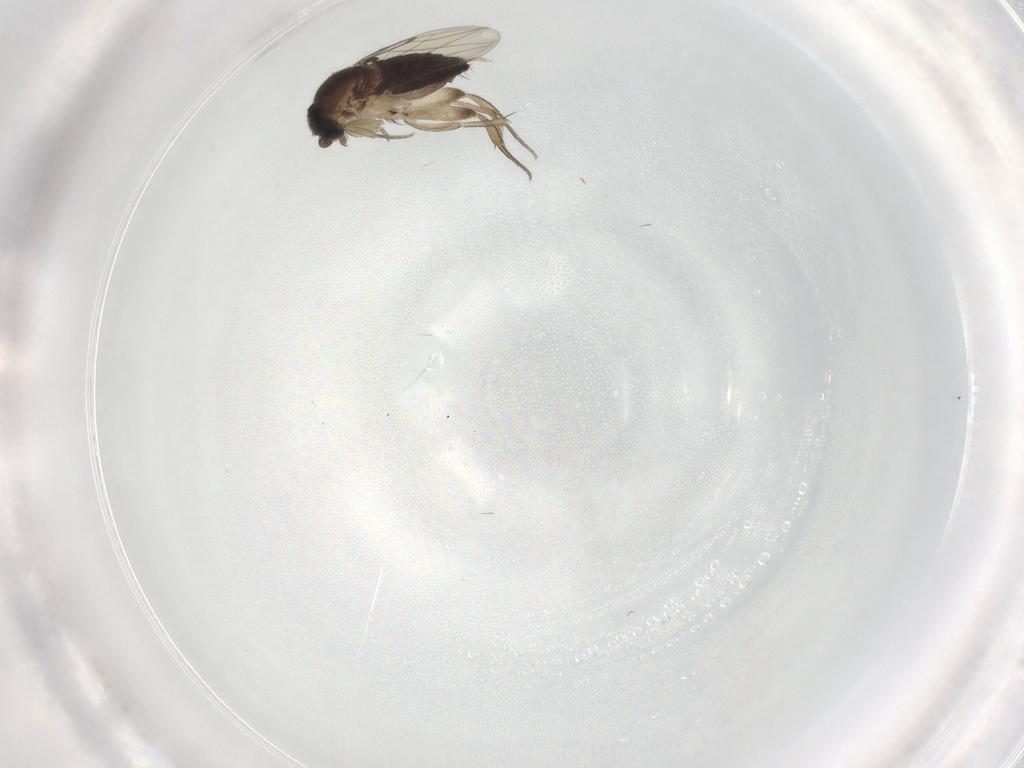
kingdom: Animalia
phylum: Arthropoda
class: Insecta
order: Diptera
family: Phoridae
